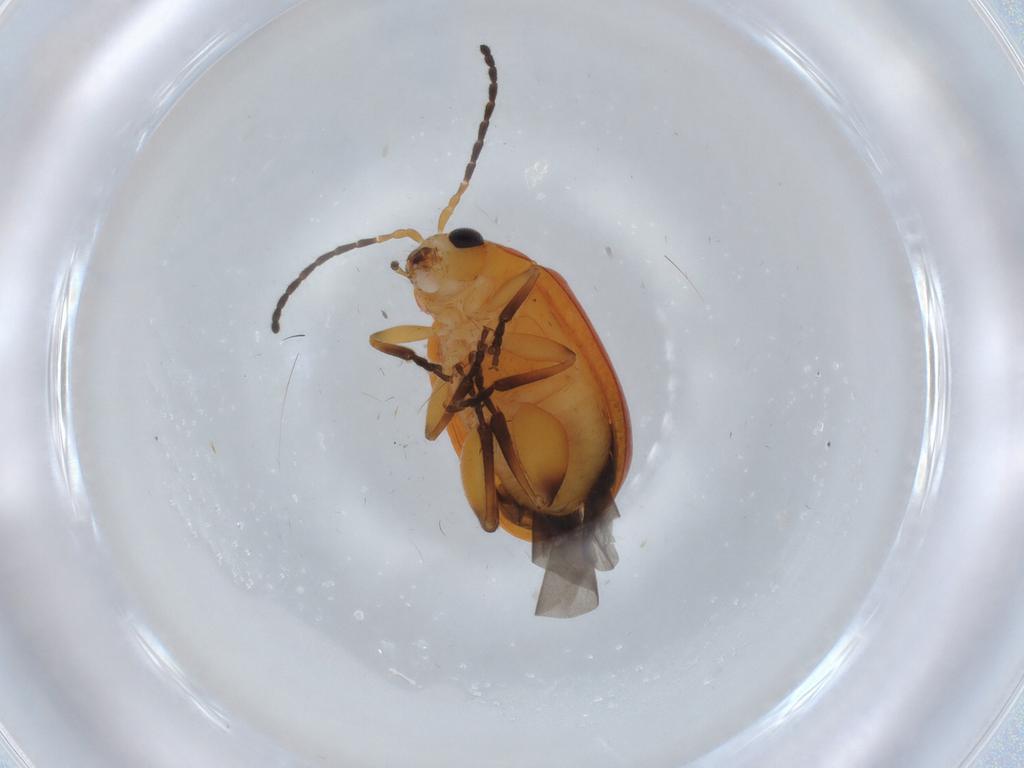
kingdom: Animalia
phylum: Arthropoda
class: Insecta
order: Coleoptera
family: Chrysomelidae
